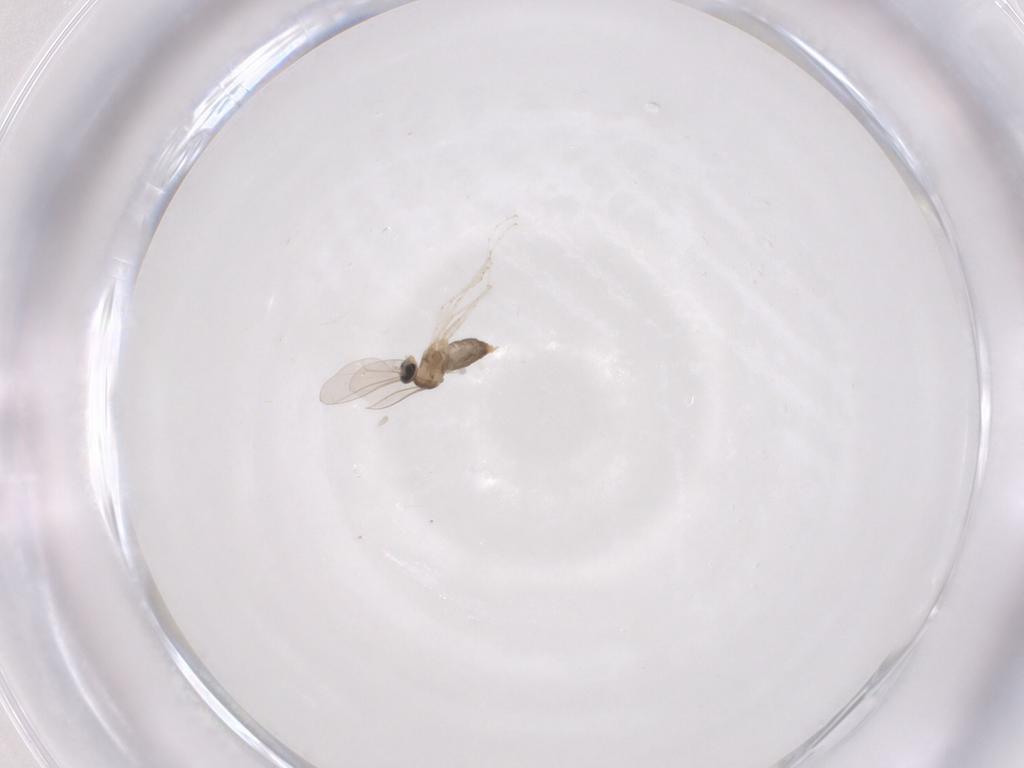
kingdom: Animalia
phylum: Arthropoda
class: Insecta
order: Diptera
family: Cecidomyiidae
